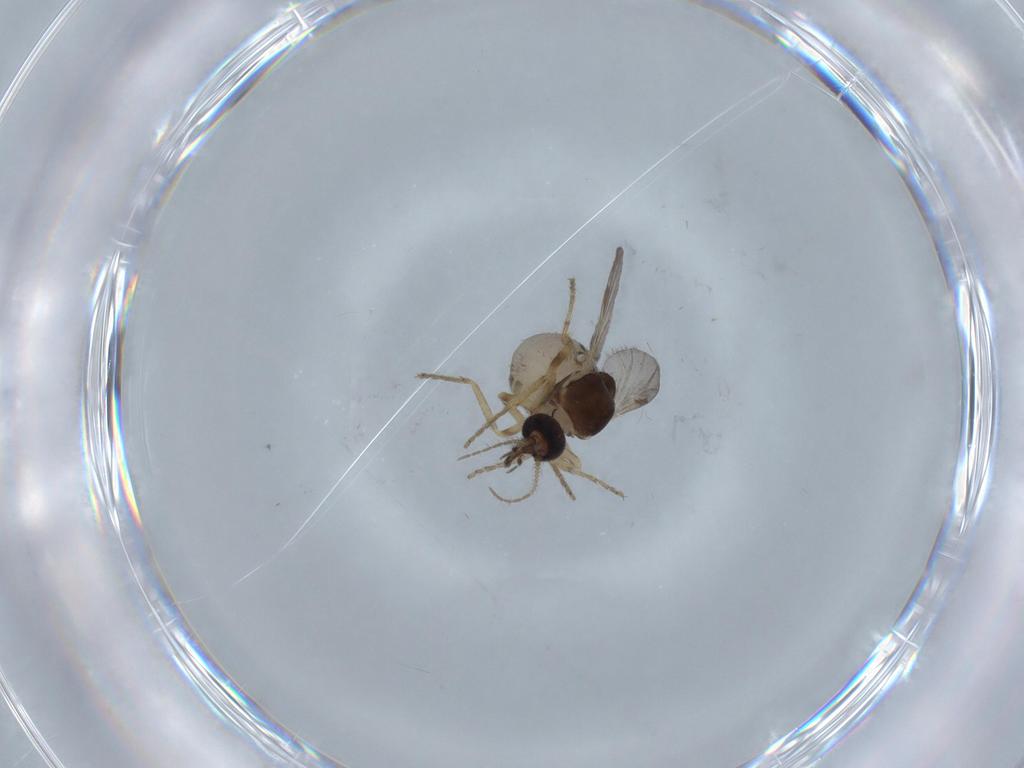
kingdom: Animalia
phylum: Arthropoda
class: Insecta
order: Diptera
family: Ceratopogonidae
